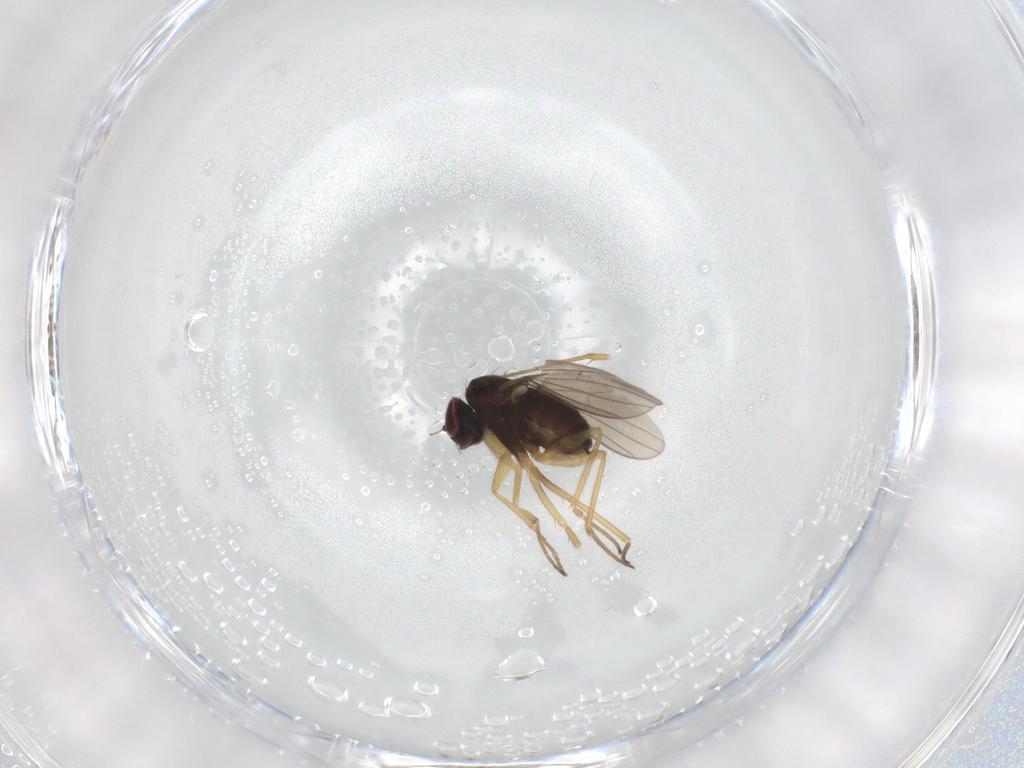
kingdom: Animalia
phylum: Arthropoda
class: Insecta
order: Diptera
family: Dolichopodidae
